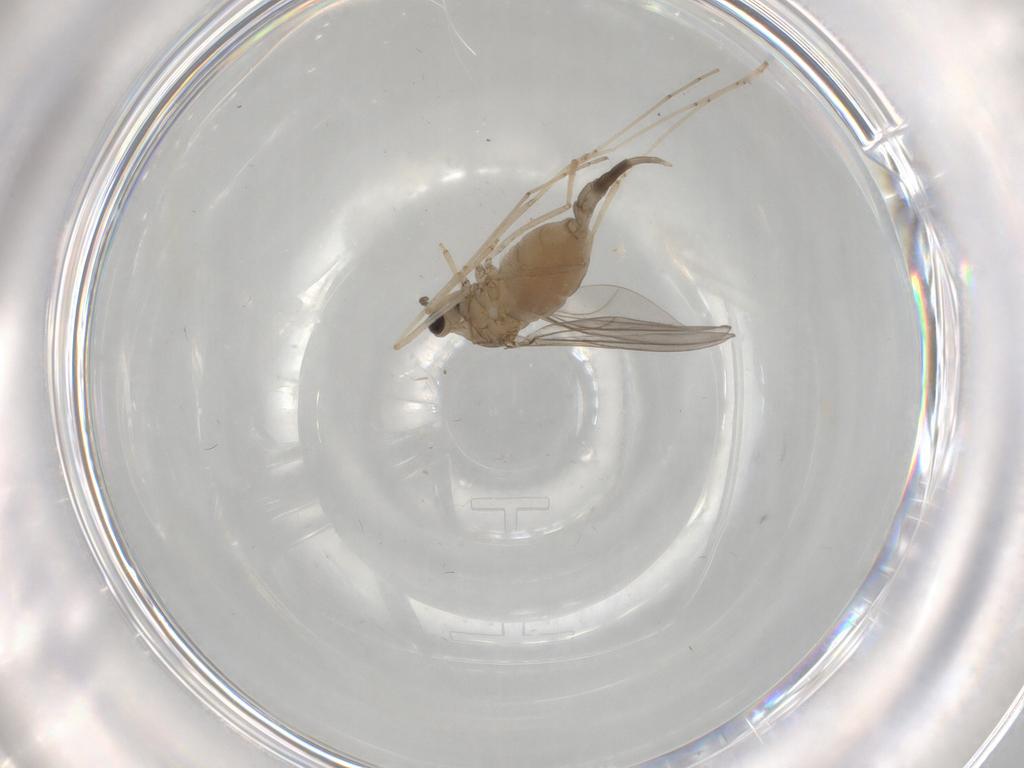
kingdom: Animalia
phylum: Arthropoda
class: Insecta
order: Diptera
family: Cecidomyiidae
